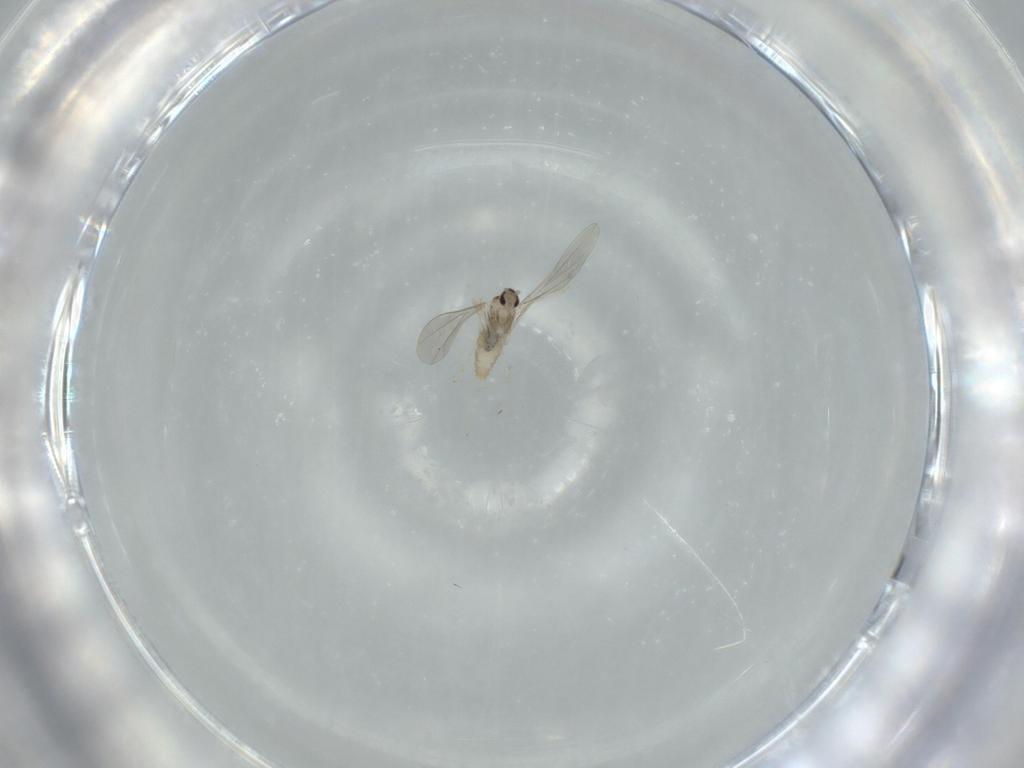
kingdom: Animalia
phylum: Arthropoda
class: Insecta
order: Diptera
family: Cecidomyiidae
